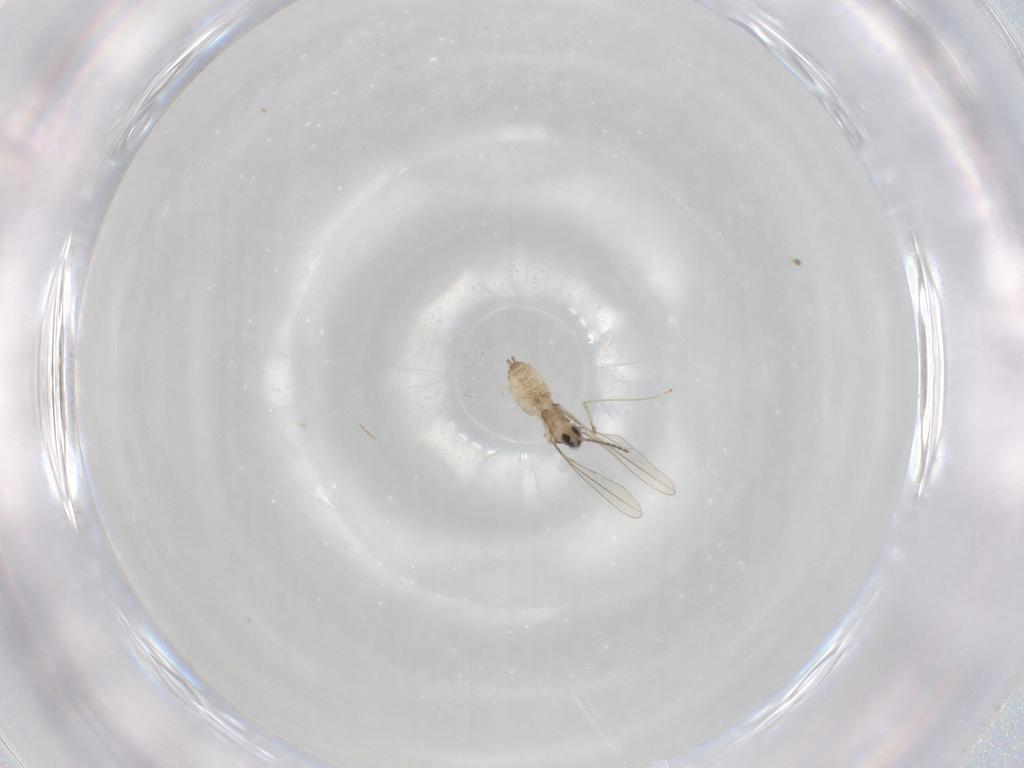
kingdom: Animalia
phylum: Arthropoda
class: Insecta
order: Diptera
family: Cecidomyiidae
